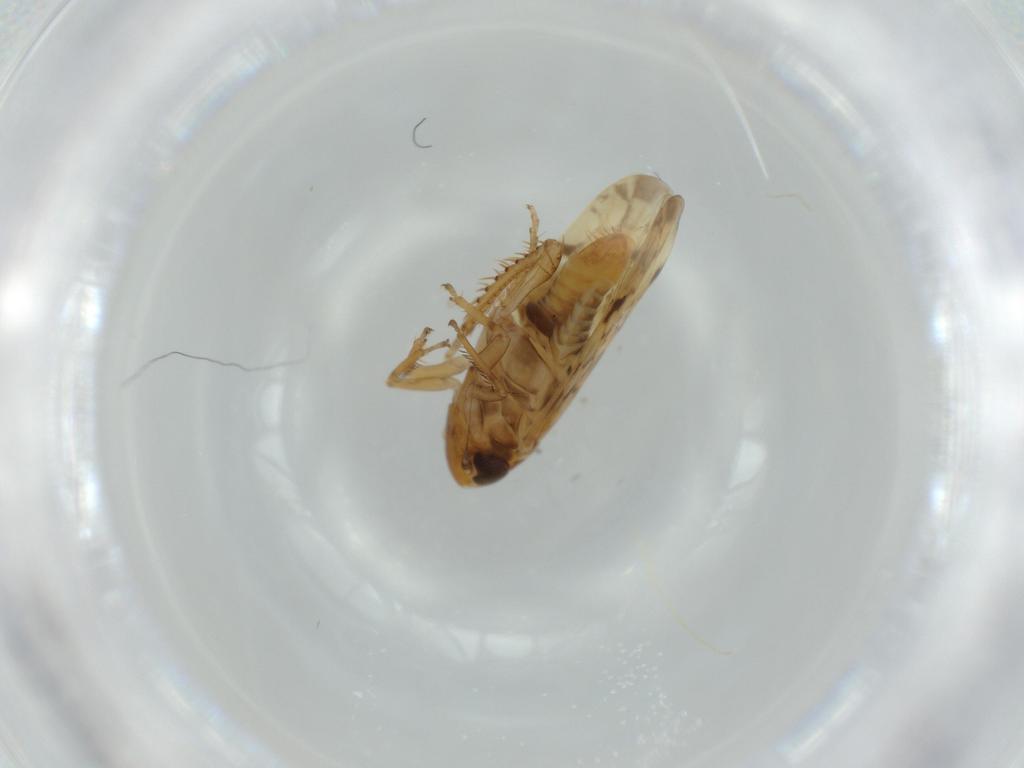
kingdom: Animalia
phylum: Arthropoda
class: Insecta
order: Hemiptera
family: Cicadellidae
